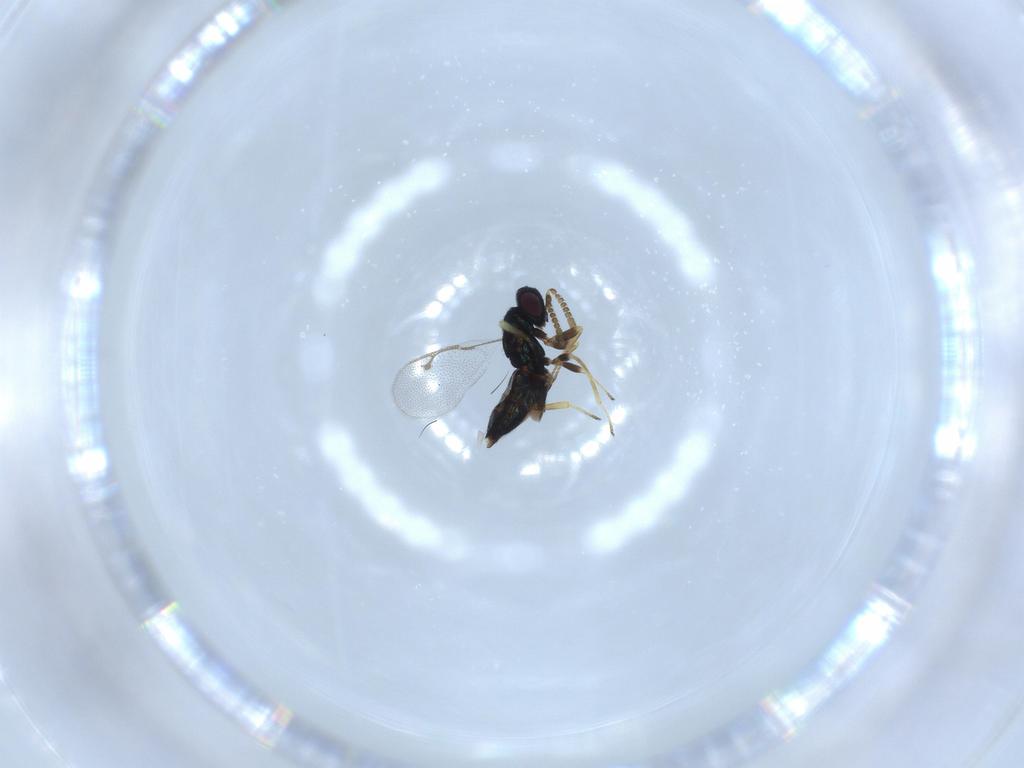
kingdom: Animalia
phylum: Arthropoda
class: Insecta
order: Hymenoptera
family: Pirenidae
